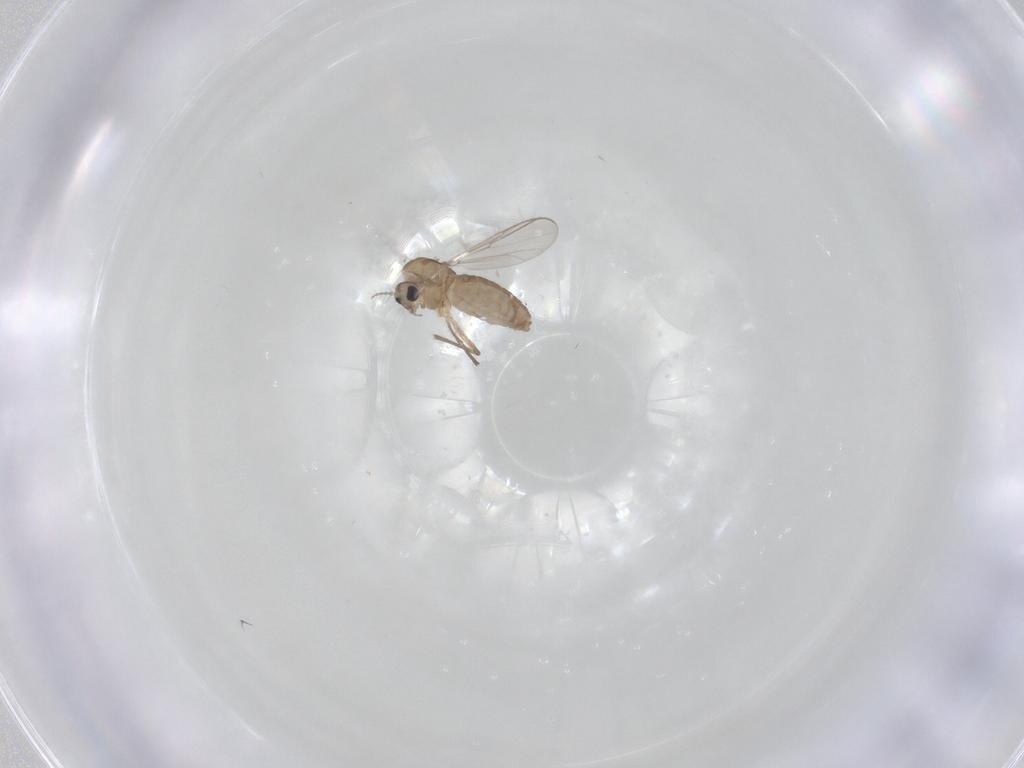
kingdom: Animalia
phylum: Arthropoda
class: Insecta
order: Diptera
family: Chironomidae
